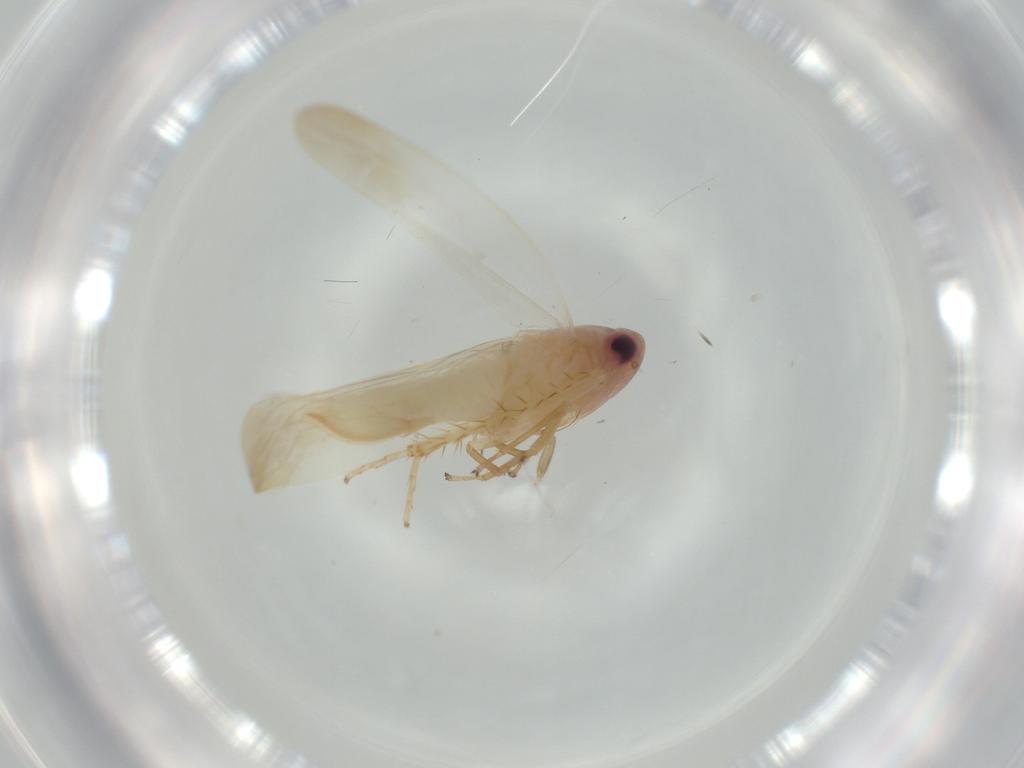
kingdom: Animalia
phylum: Arthropoda
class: Insecta
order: Hemiptera
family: Cicadellidae
